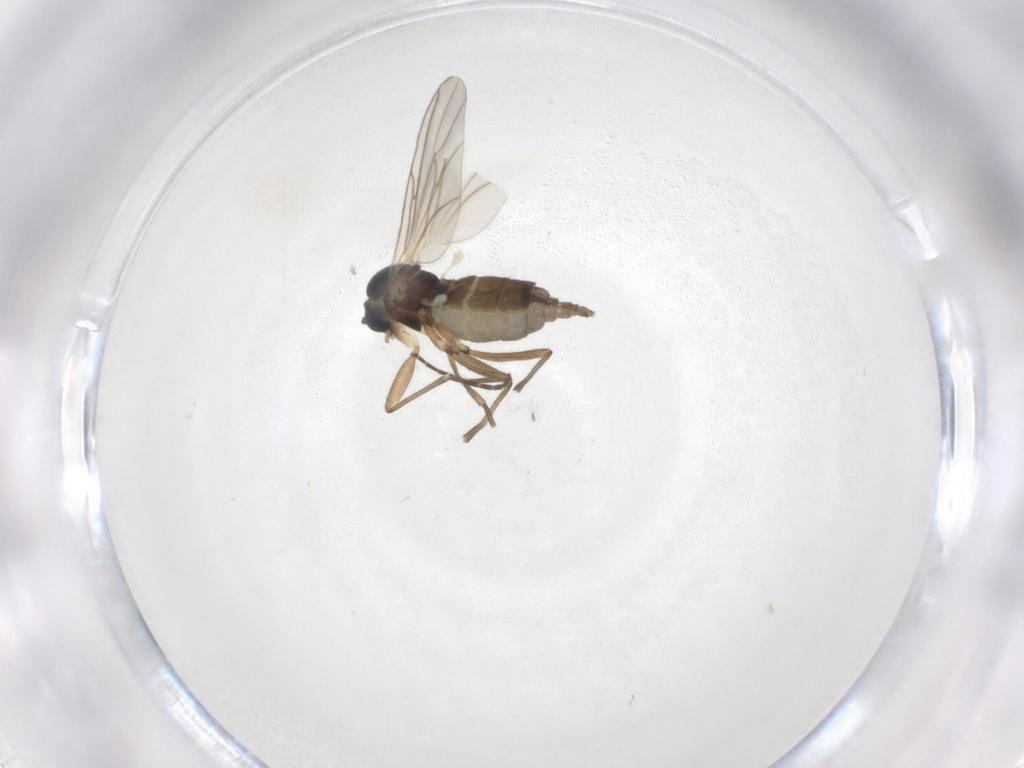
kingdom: Animalia
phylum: Arthropoda
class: Insecta
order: Diptera
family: Chironomidae
